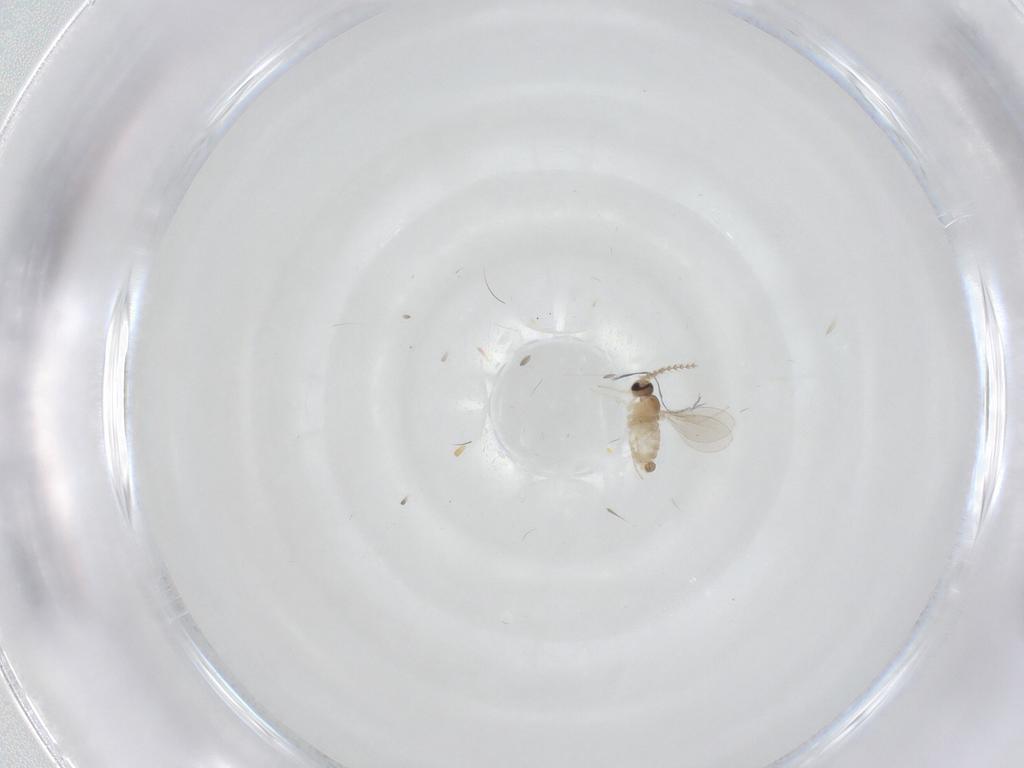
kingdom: Animalia
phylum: Arthropoda
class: Insecta
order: Diptera
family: Cecidomyiidae
